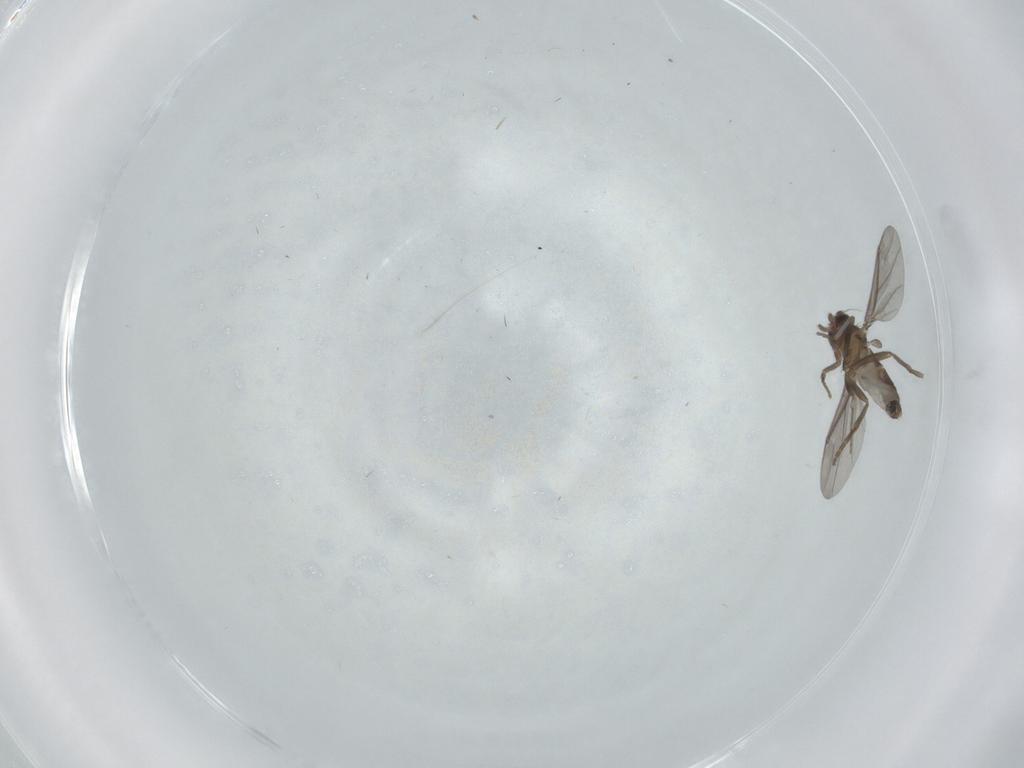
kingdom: Animalia
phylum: Arthropoda
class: Insecta
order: Diptera
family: Phoridae
